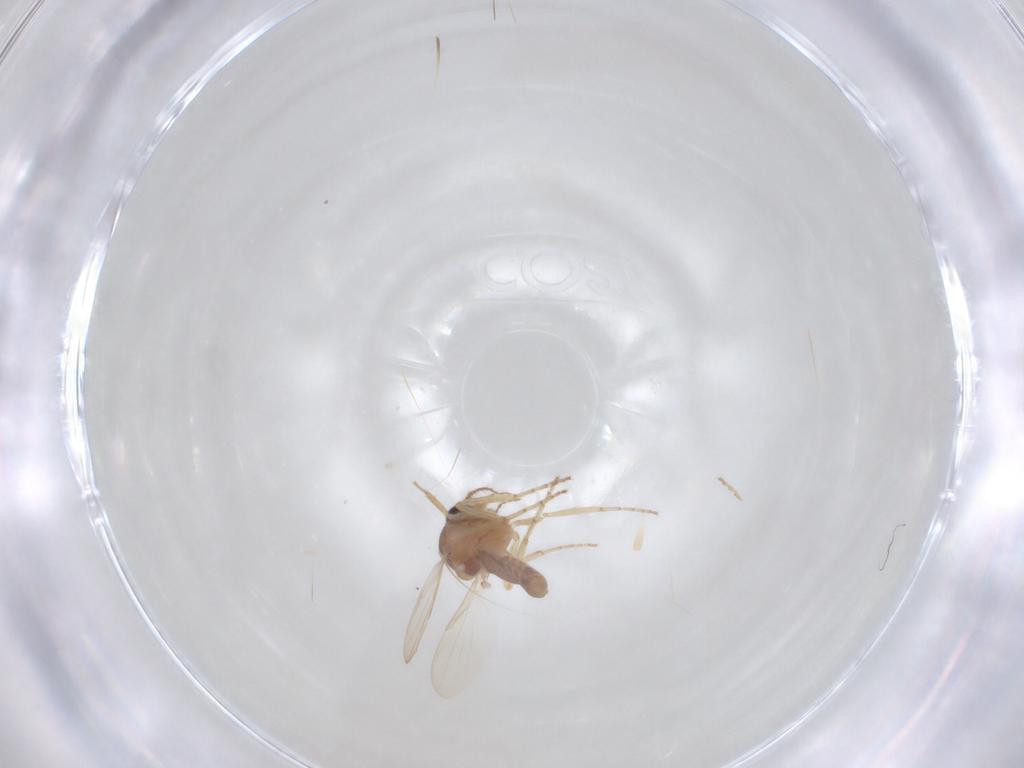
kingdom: Animalia
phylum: Arthropoda
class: Insecta
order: Diptera
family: Ceratopogonidae
